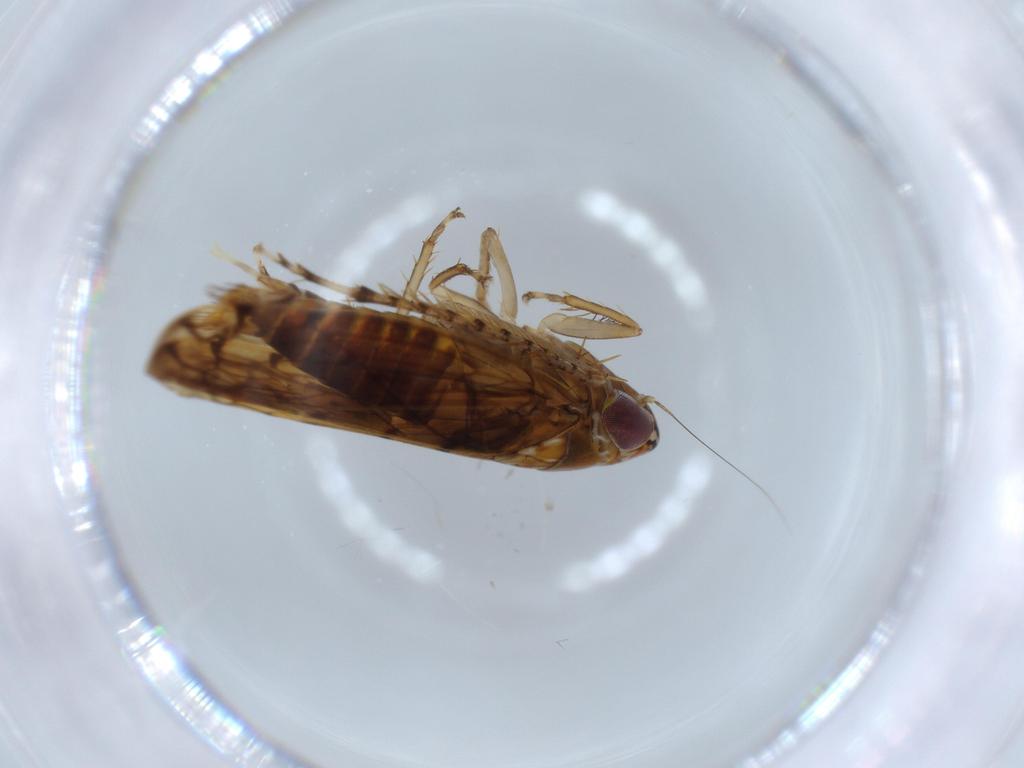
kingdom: Animalia
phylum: Arthropoda
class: Insecta
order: Hemiptera
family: Cicadellidae
